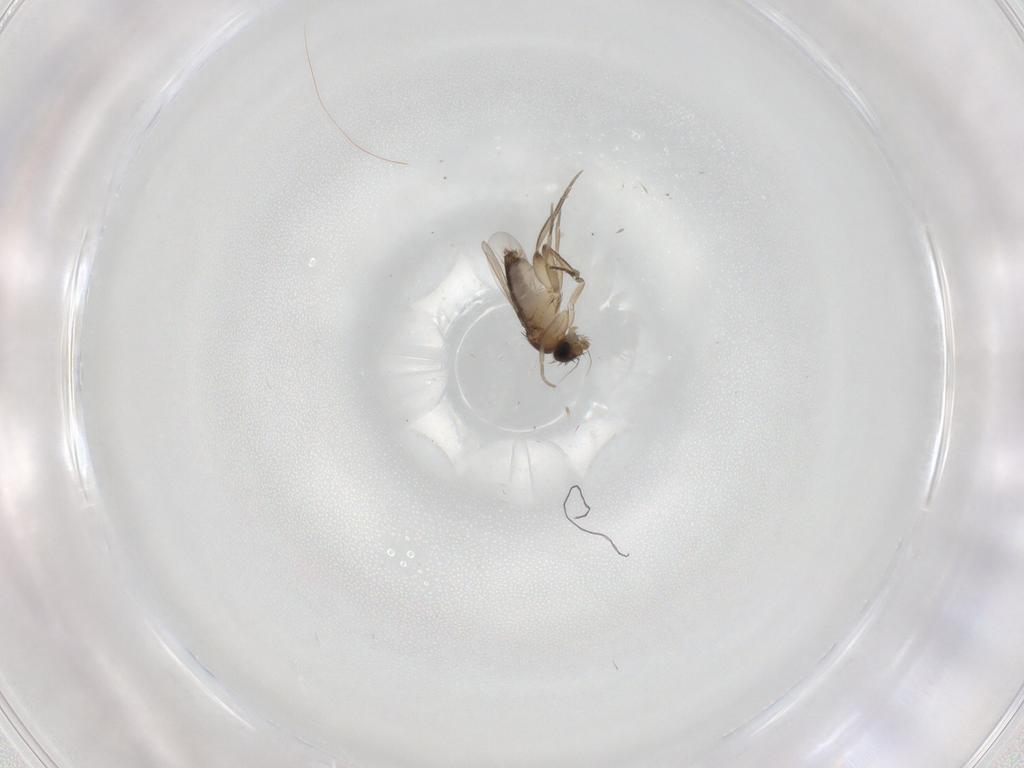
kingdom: Animalia
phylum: Arthropoda
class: Insecta
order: Diptera
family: Phoridae
